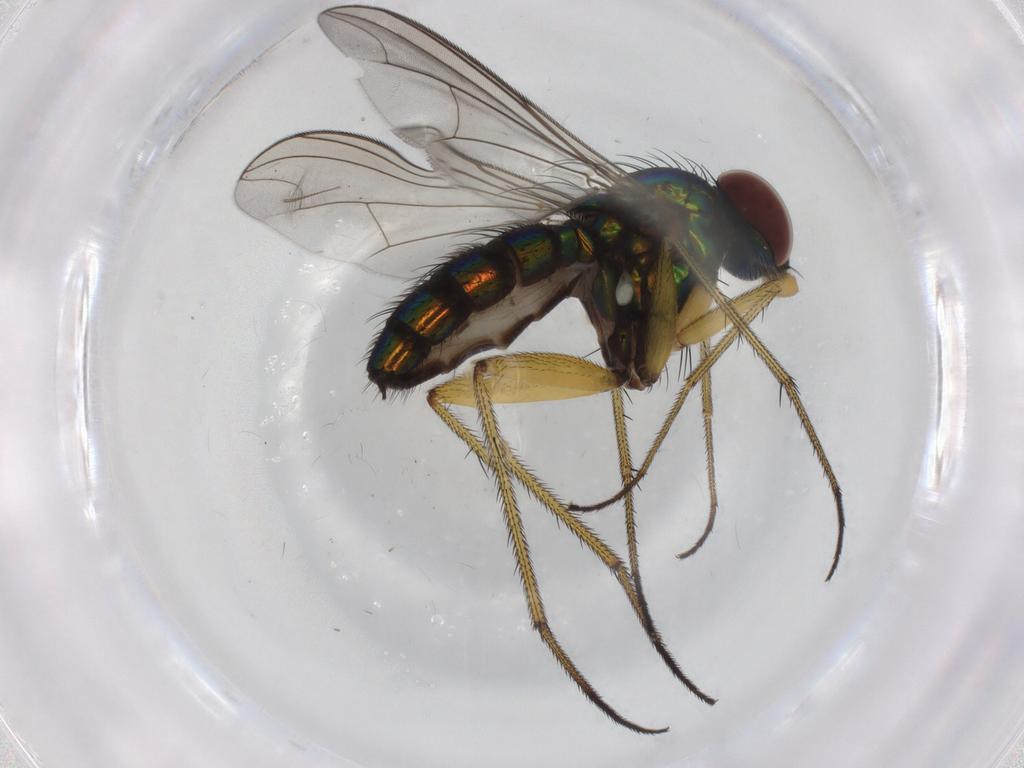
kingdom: Animalia
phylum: Arthropoda
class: Insecta
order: Diptera
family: Dolichopodidae
